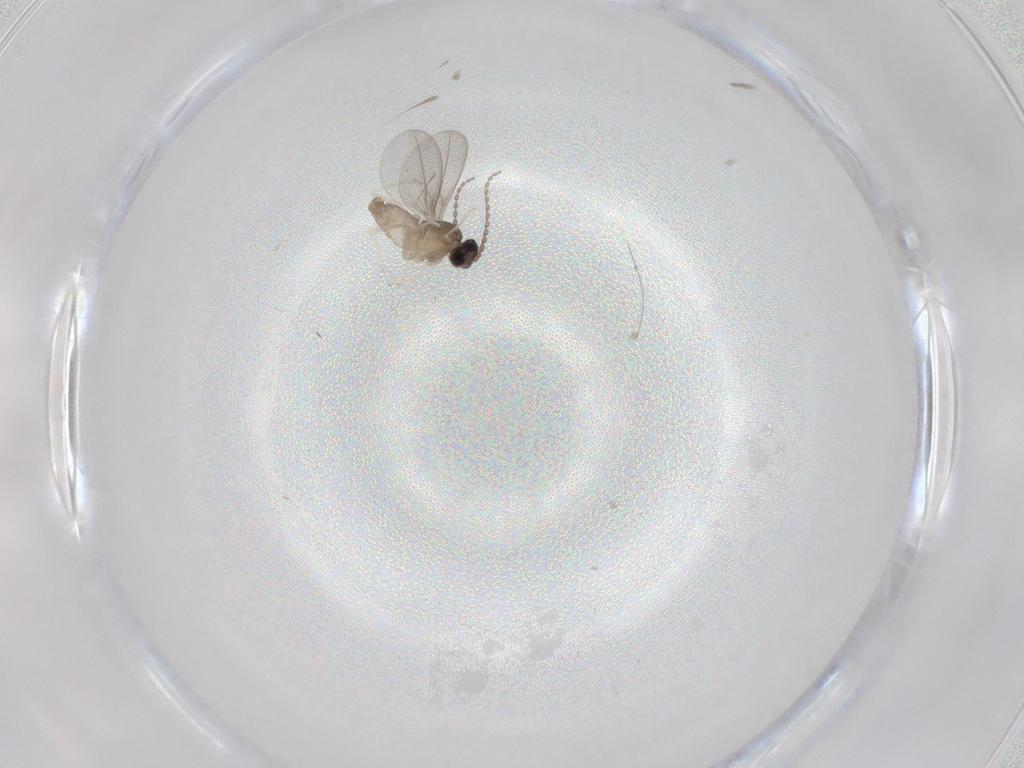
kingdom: Animalia
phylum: Arthropoda
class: Insecta
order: Diptera
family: Cecidomyiidae
